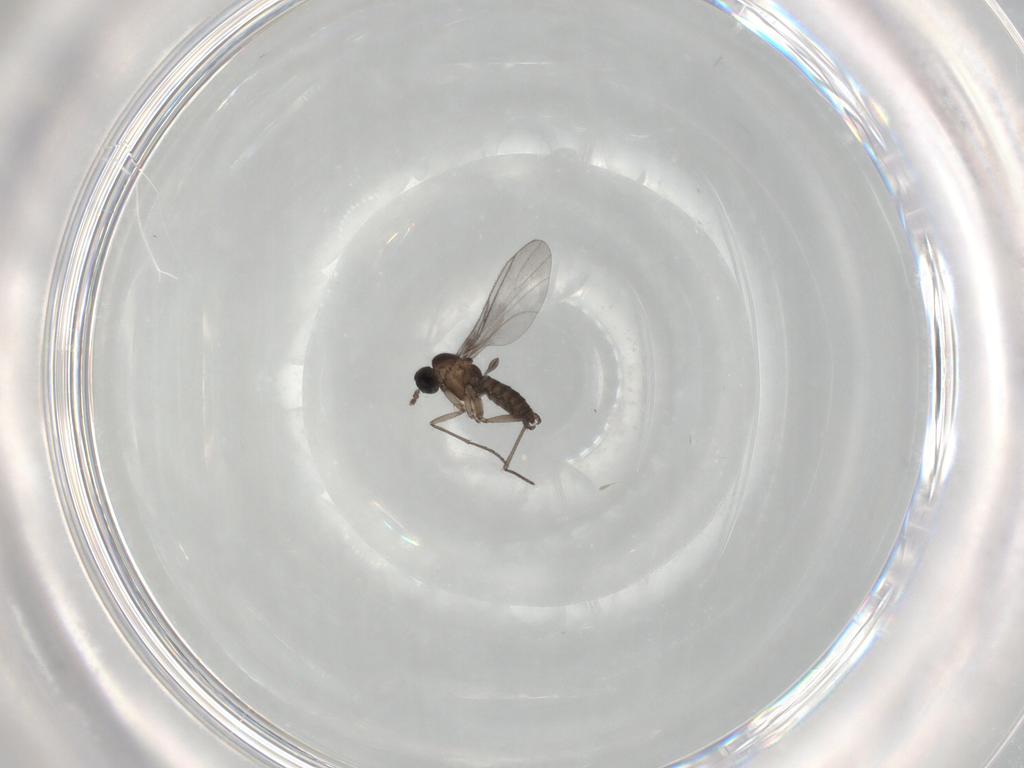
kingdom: Animalia
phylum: Arthropoda
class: Insecta
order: Diptera
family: Sciaridae
